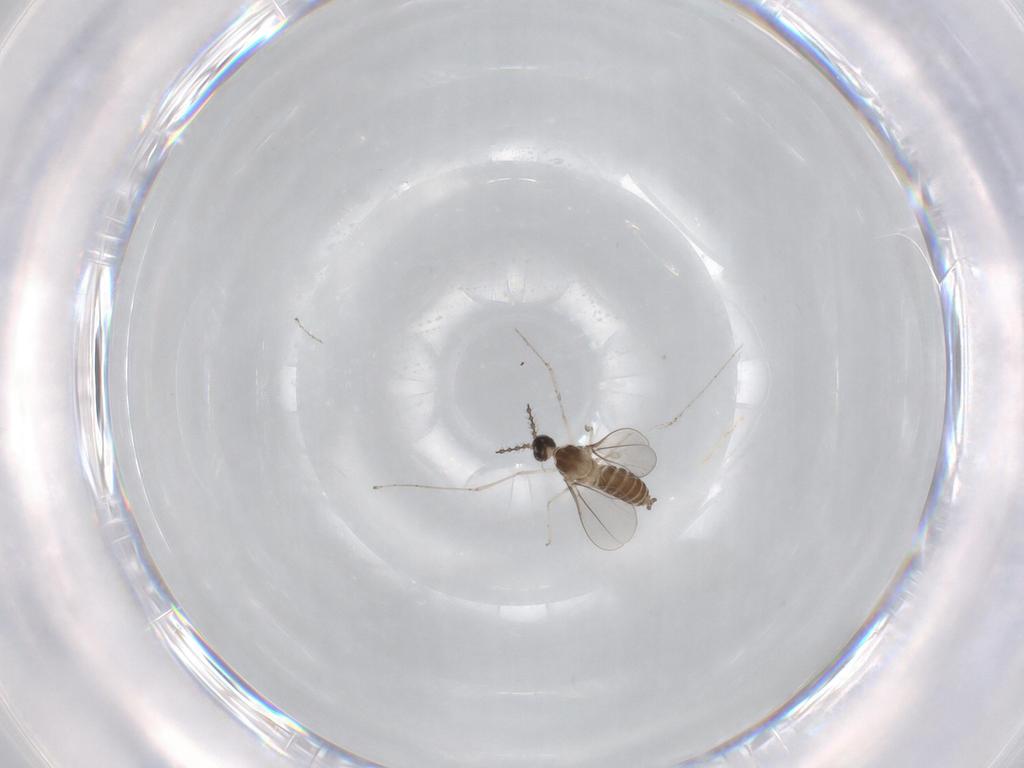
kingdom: Animalia
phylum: Arthropoda
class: Insecta
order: Diptera
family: Cecidomyiidae
